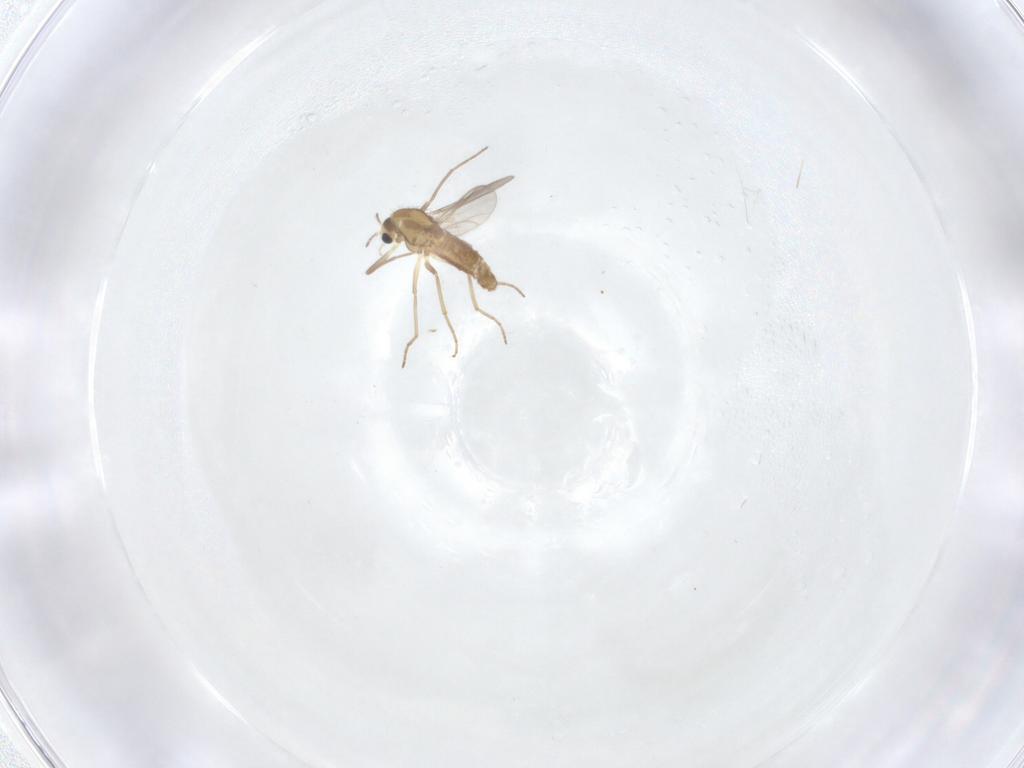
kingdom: Animalia
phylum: Arthropoda
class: Insecta
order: Diptera
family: Chironomidae
